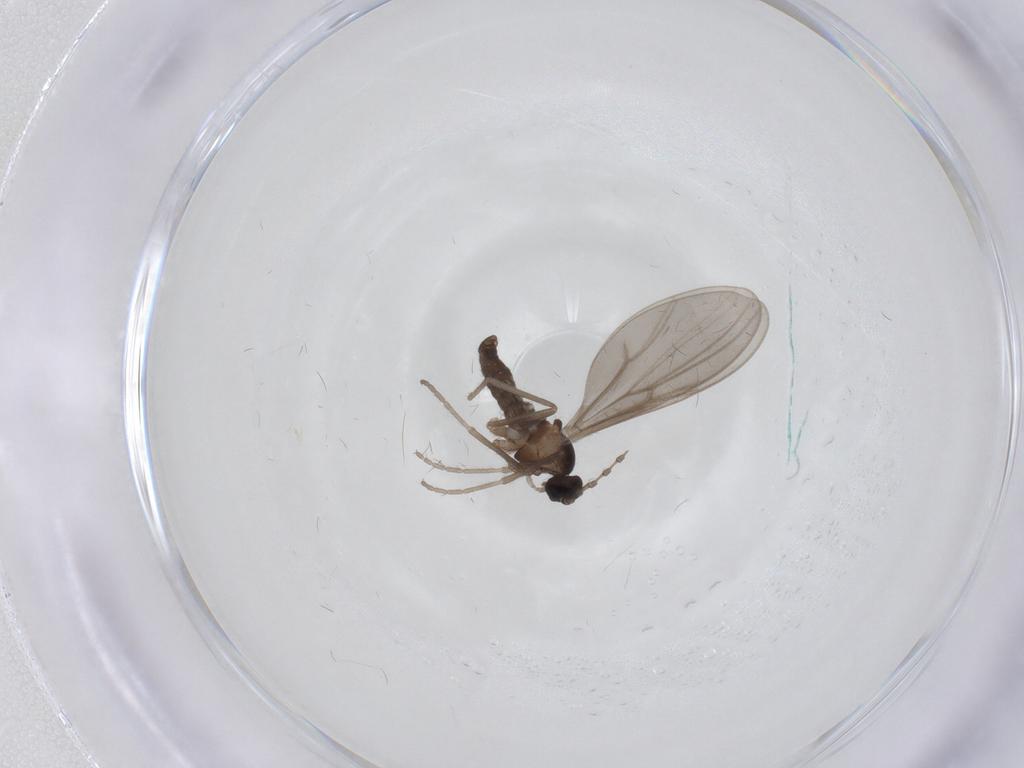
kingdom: Animalia
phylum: Arthropoda
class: Insecta
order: Diptera
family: Cecidomyiidae
